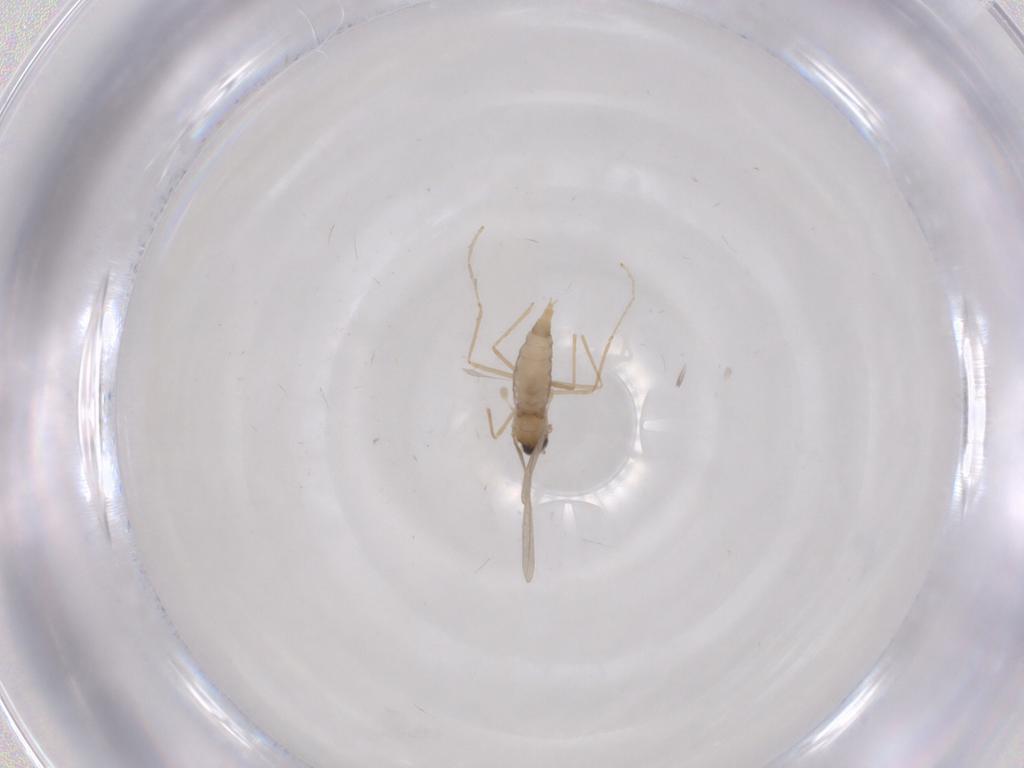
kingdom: Animalia
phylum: Arthropoda
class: Insecta
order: Diptera
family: Cecidomyiidae
